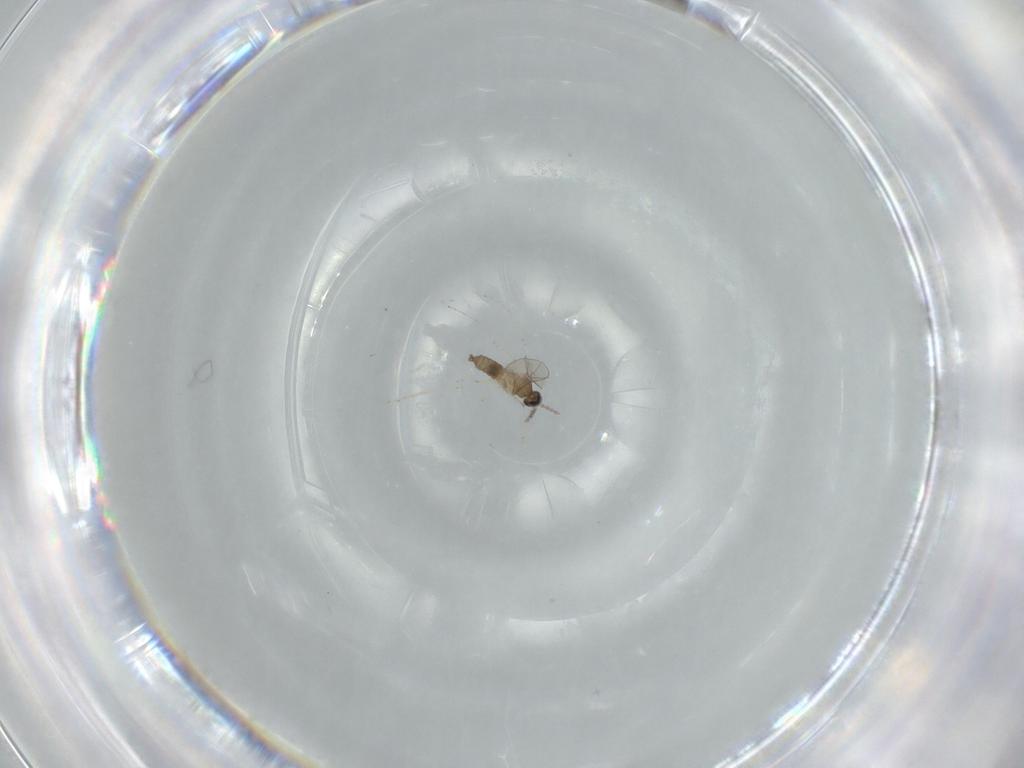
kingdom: Animalia
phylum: Arthropoda
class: Insecta
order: Diptera
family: Cecidomyiidae
